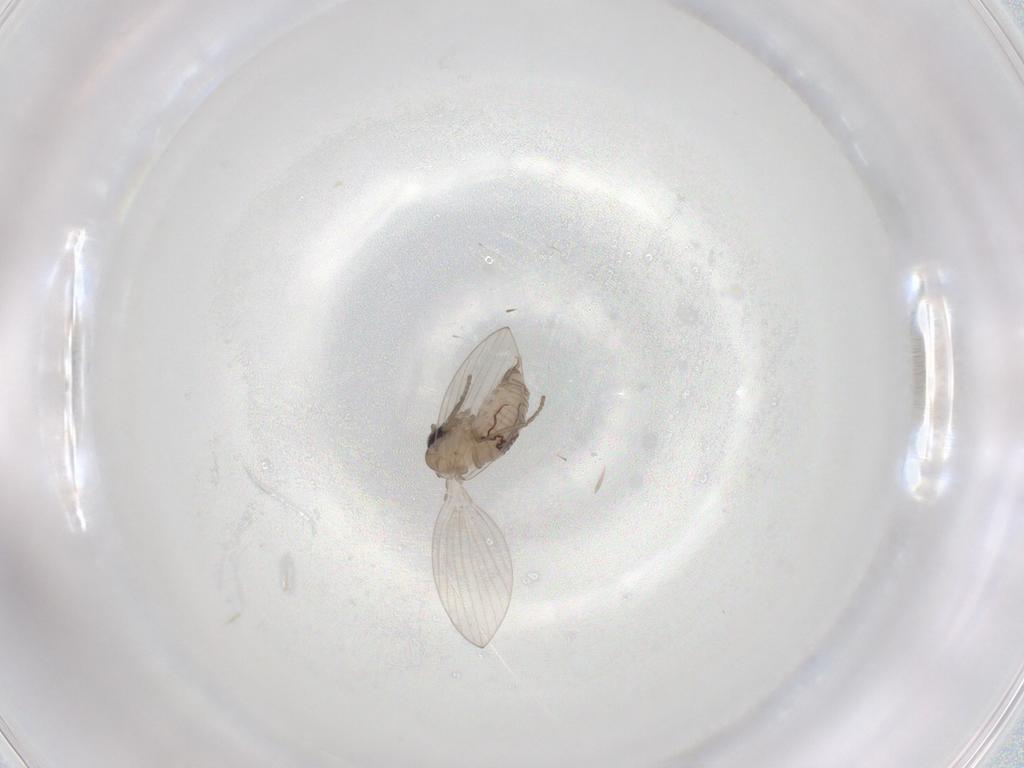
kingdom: Animalia
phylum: Arthropoda
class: Insecta
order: Diptera
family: Psychodidae
